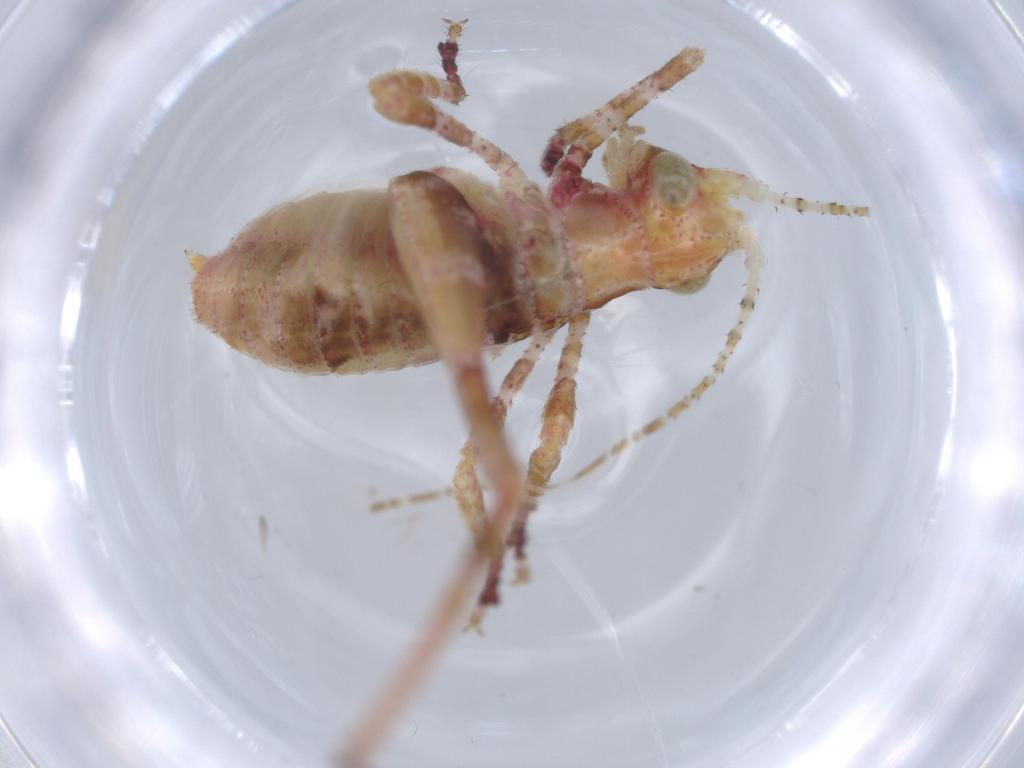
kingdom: Animalia
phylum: Arthropoda
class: Insecta
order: Orthoptera
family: Tettigoniidae
